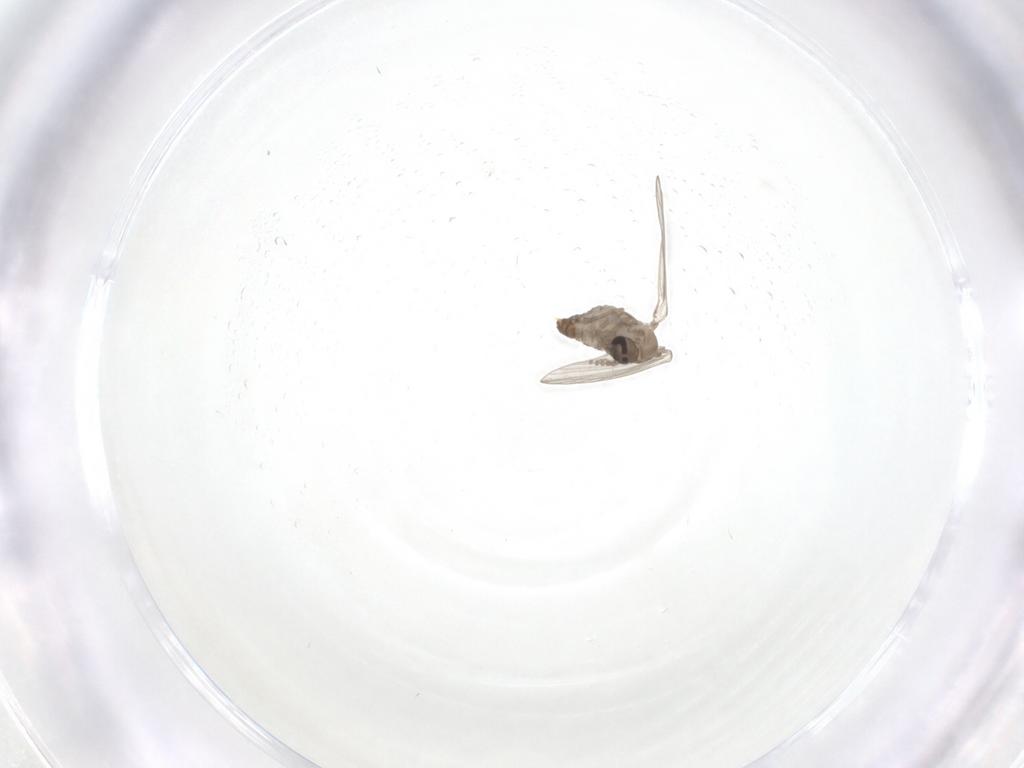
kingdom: Animalia
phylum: Arthropoda
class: Insecta
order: Diptera
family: Psychodidae
